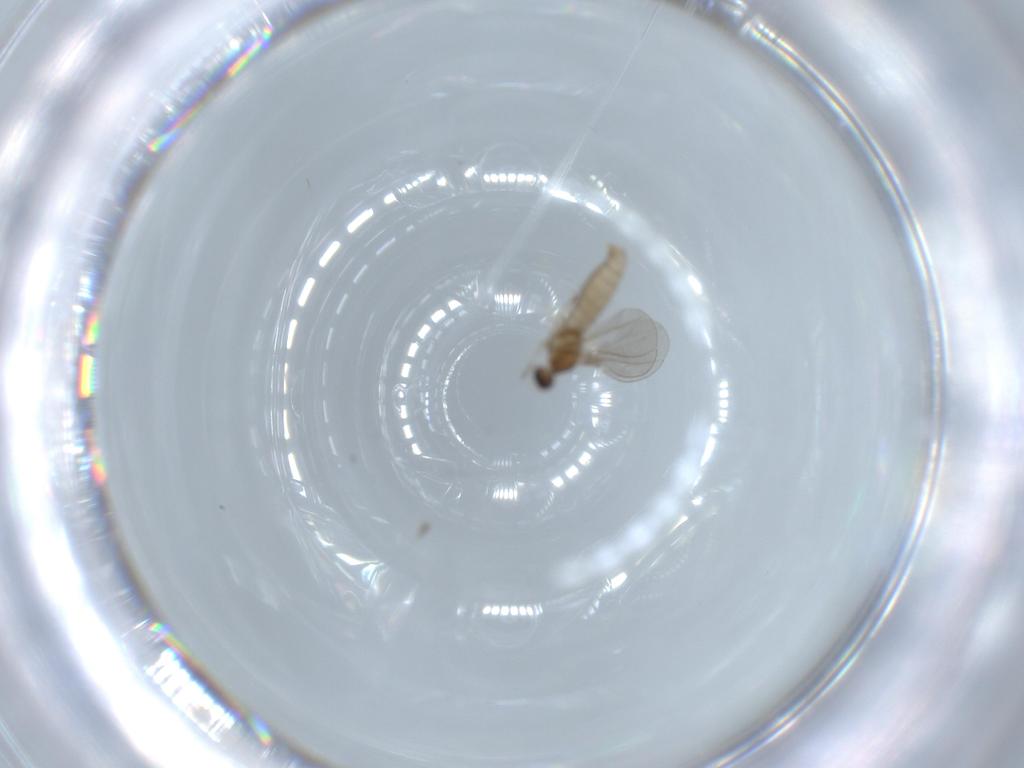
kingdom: Animalia
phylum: Arthropoda
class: Insecta
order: Diptera
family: Cecidomyiidae
